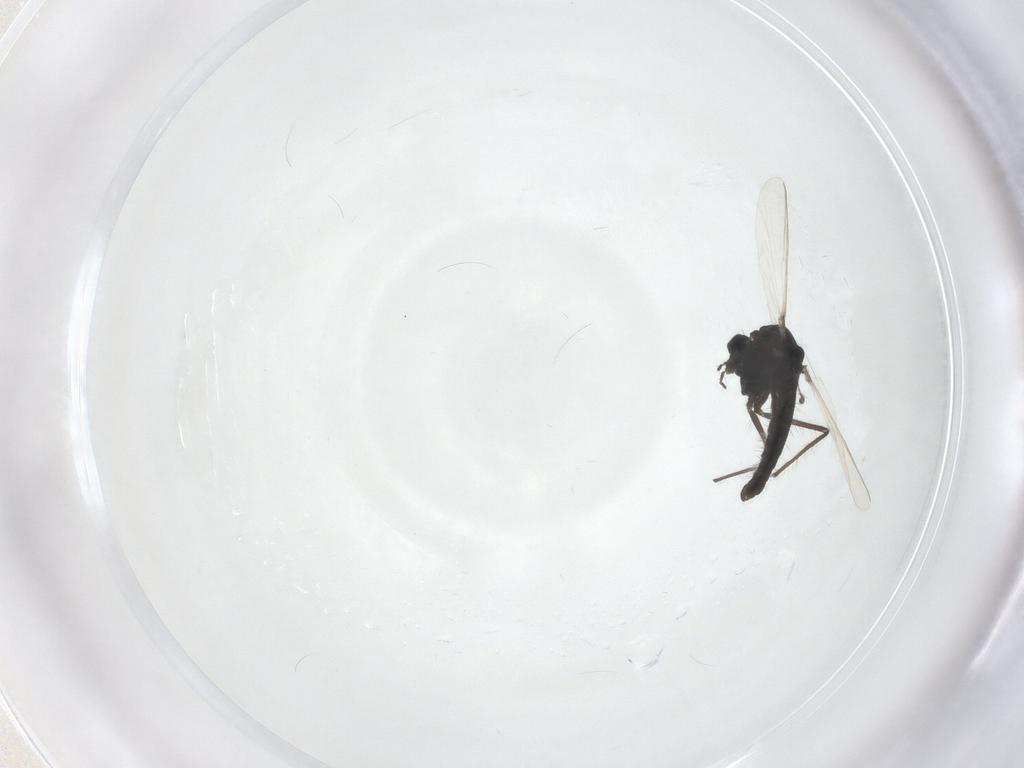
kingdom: Animalia
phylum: Arthropoda
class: Insecta
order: Diptera
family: Chironomidae
